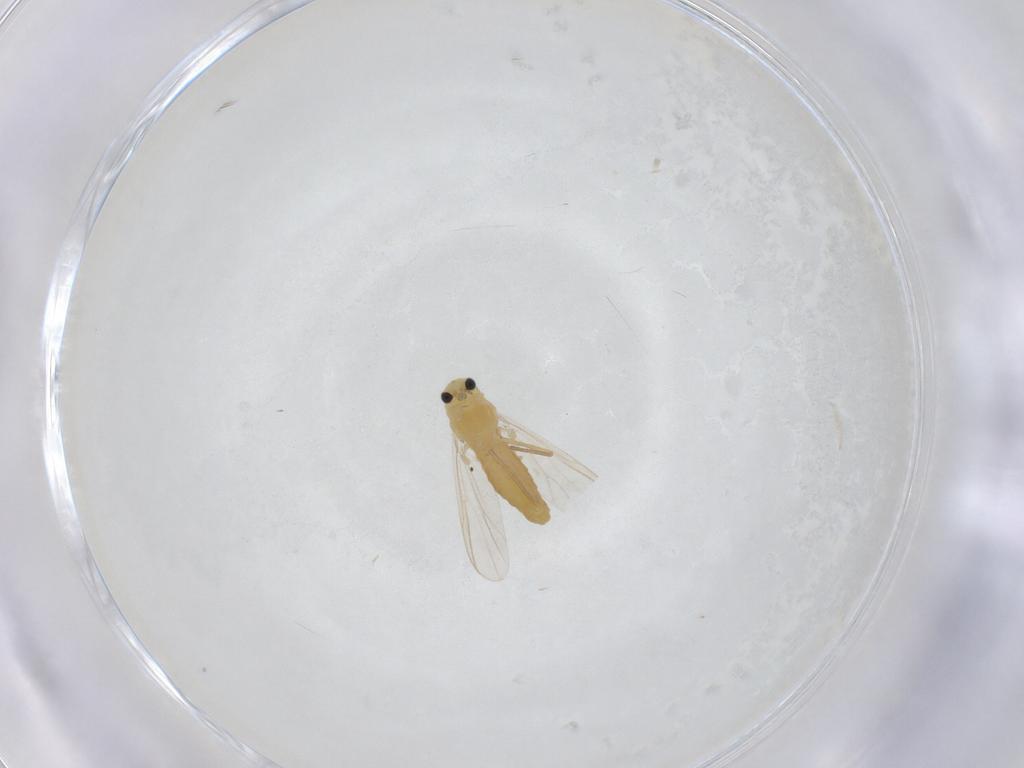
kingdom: Animalia
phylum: Arthropoda
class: Insecta
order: Diptera
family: Chironomidae
